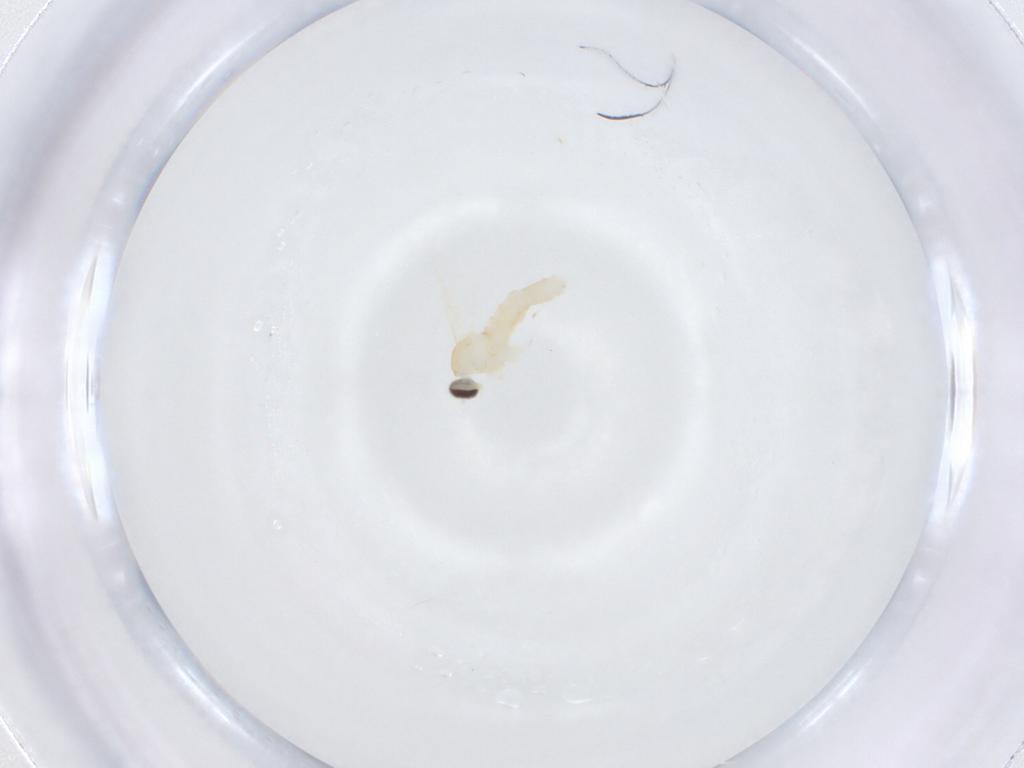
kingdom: Animalia
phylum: Arthropoda
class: Insecta
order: Diptera
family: Cecidomyiidae
